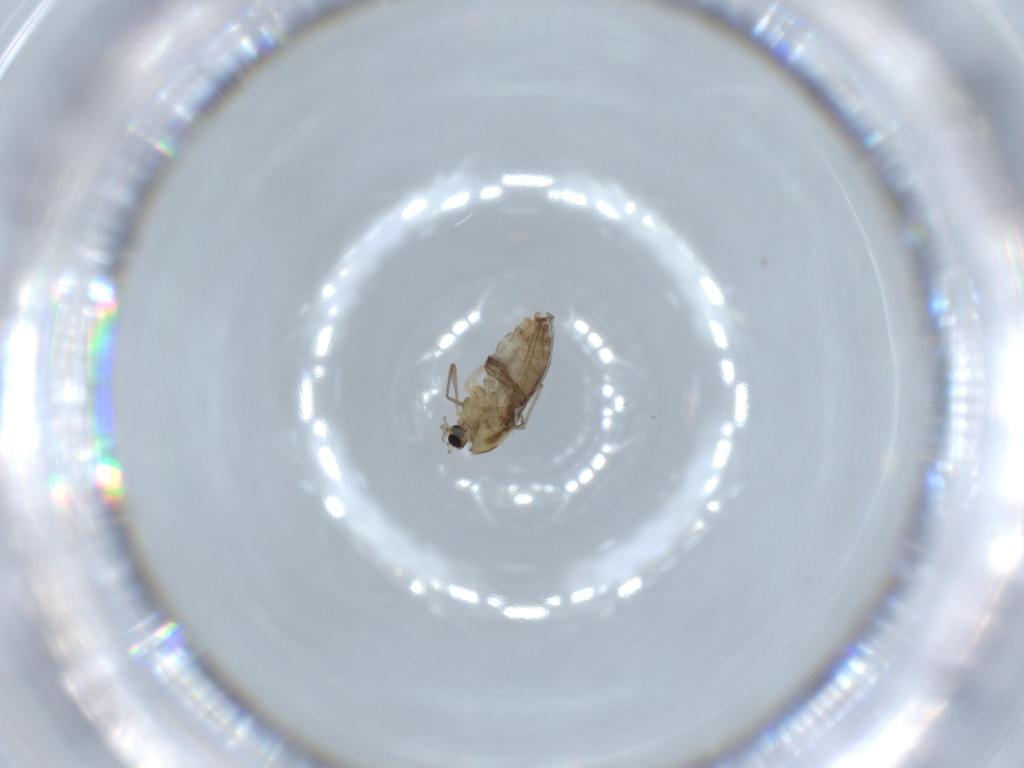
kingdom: Animalia
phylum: Arthropoda
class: Insecta
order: Diptera
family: Chironomidae
